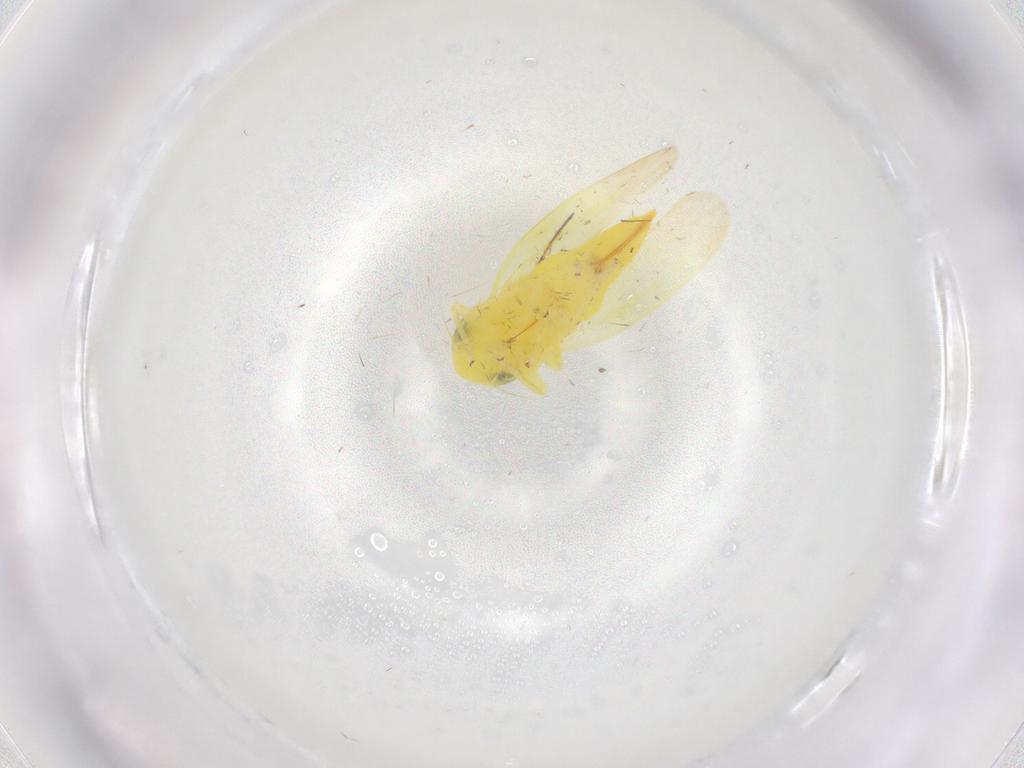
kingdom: Animalia
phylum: Arthropoda
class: Insecta
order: Hemiptera
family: Cicadellidae
